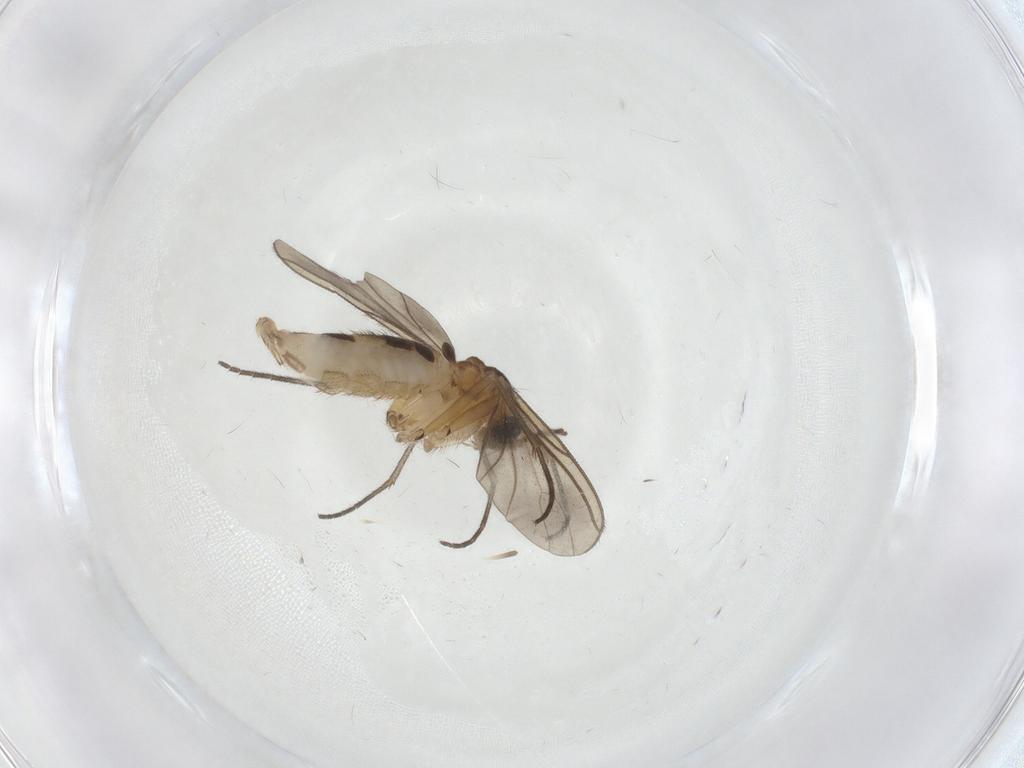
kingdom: Animalia
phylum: Arthropoda
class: Insecta
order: Diptera
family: Sciaridae
